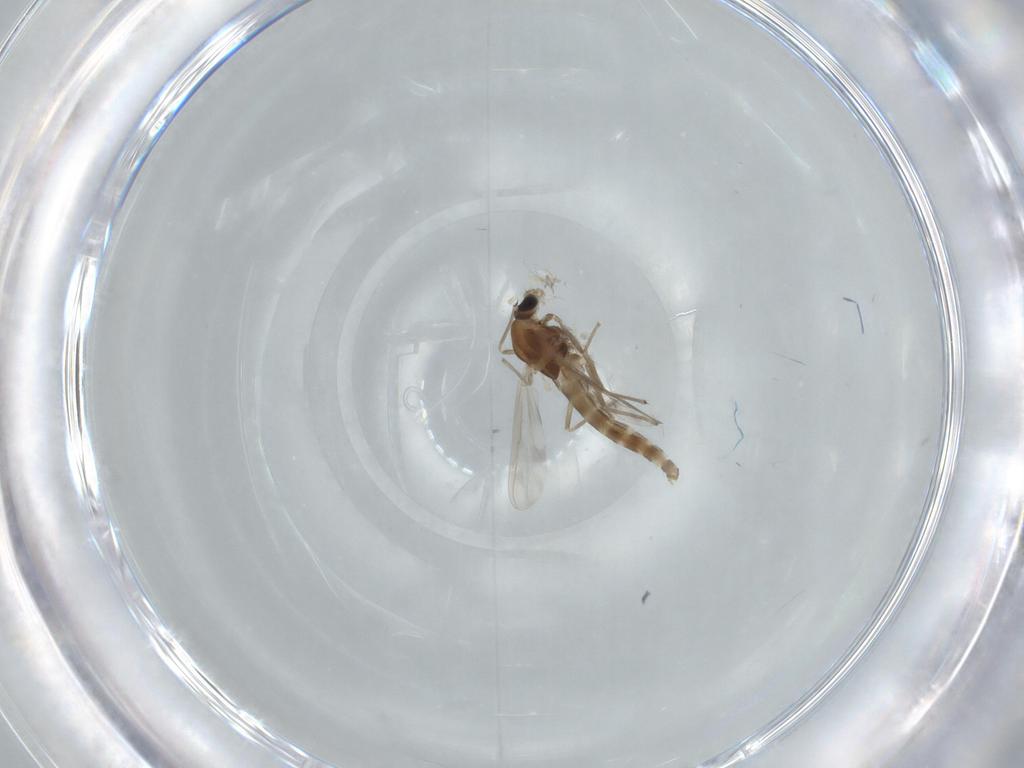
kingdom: Animalia
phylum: Arthropoda
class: Insecta
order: Diptera
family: Chironomidae
